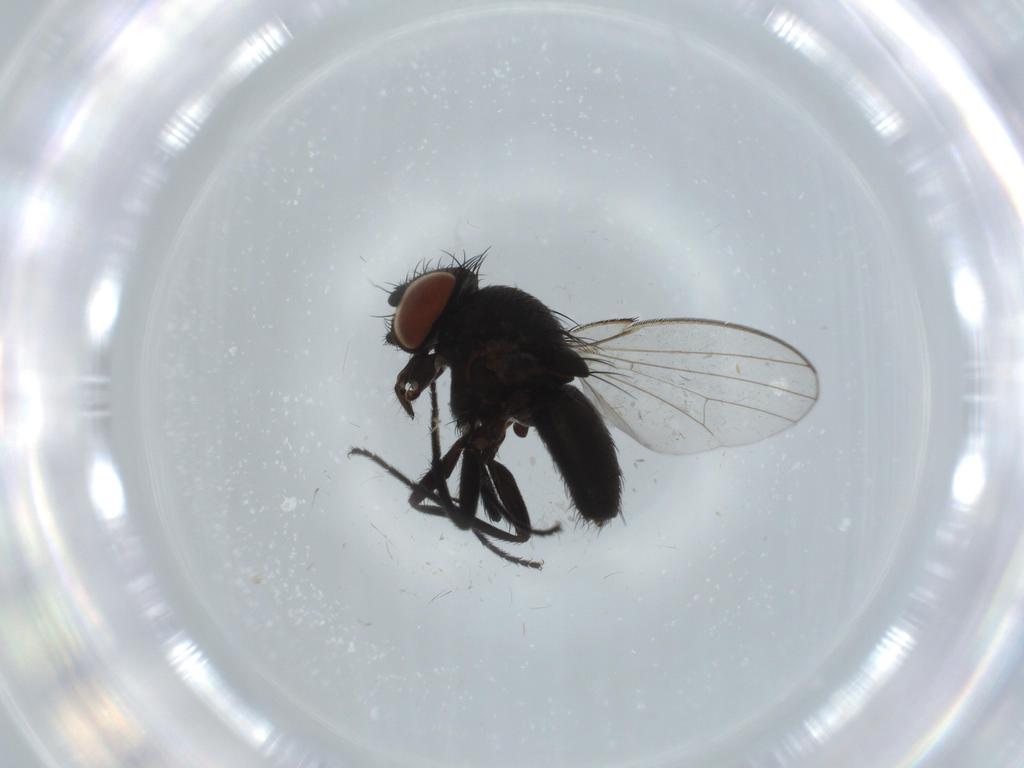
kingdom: Animalia
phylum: Arthropoda
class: Insecta
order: Diptera
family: Milichiidae
